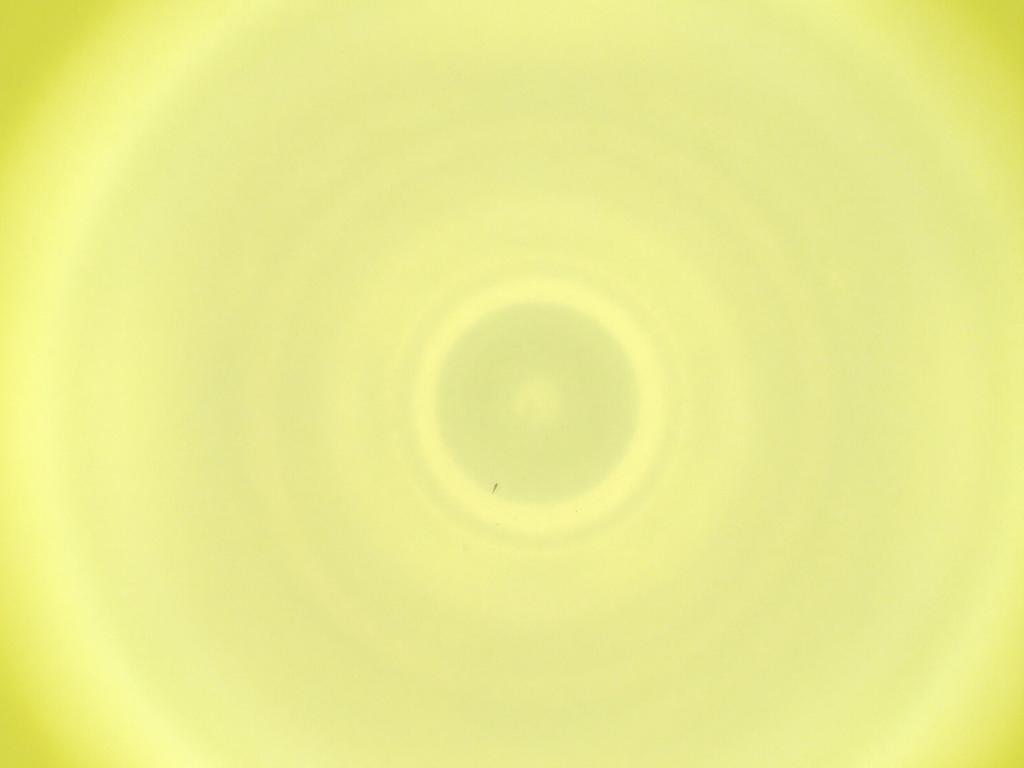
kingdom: Animalia
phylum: Arthropoda
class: Insecta
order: Diptera
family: Cecidomyiidae
